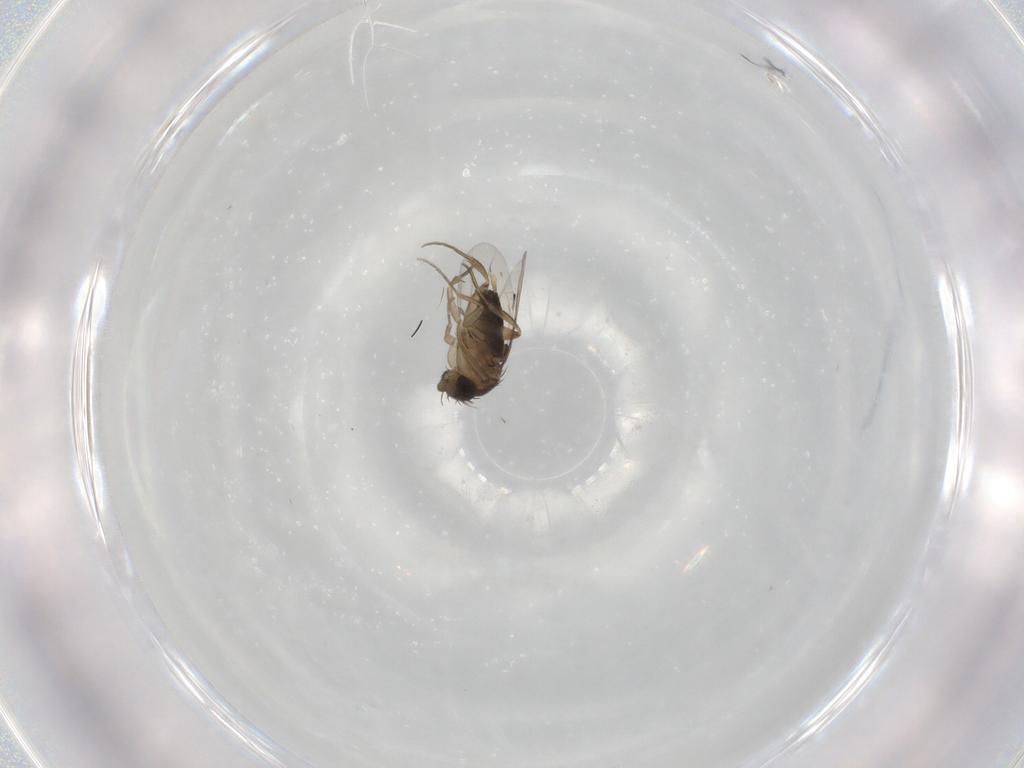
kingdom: Animalia
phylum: Arthropoda
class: Insecta
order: Diptera
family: Phoridae
